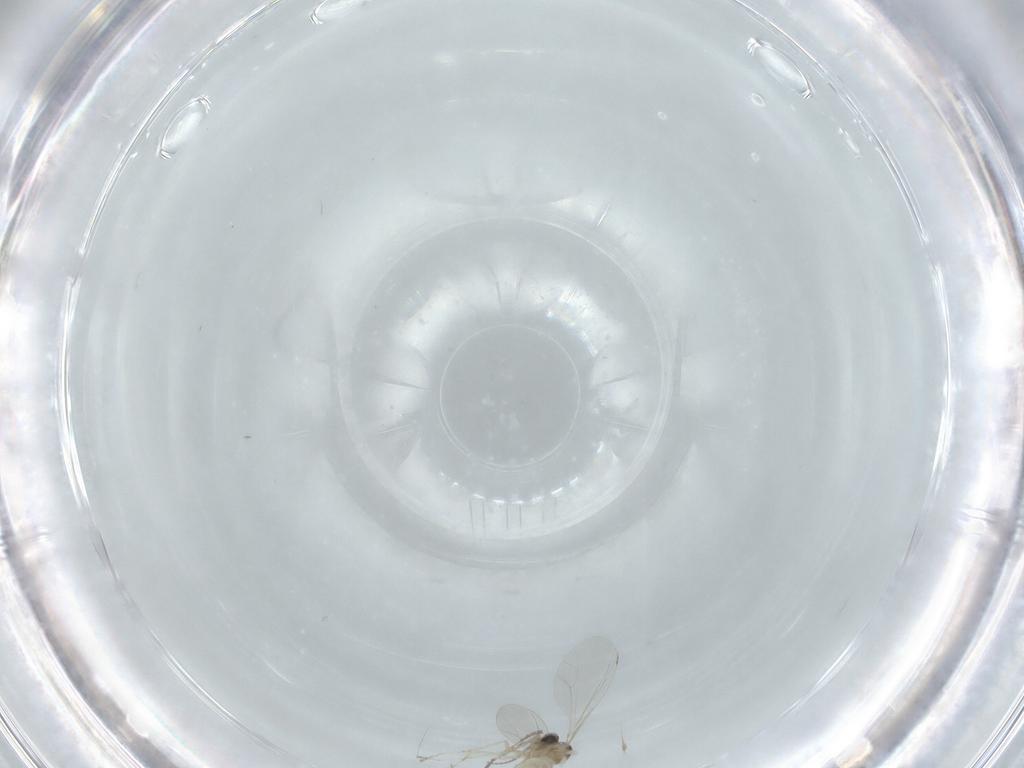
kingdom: Animalia
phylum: Arthropoda
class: Insecta
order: Diptera
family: Cecidomyiidae
